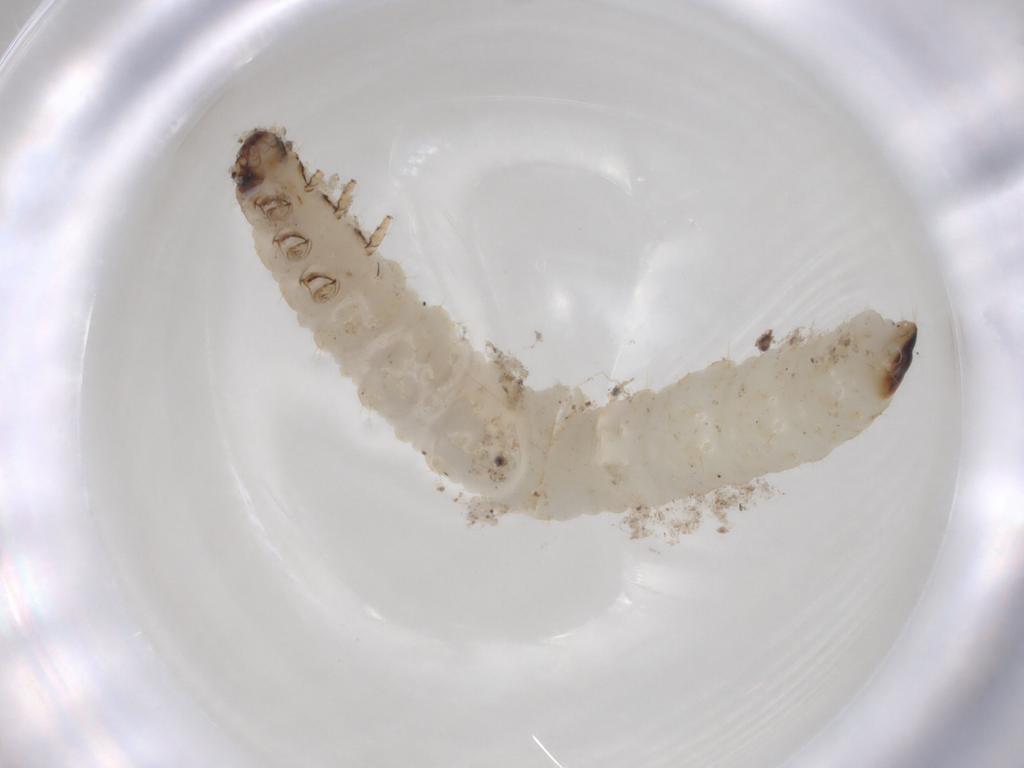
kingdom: Animalia
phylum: Arthropoda
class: Insecta
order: Coleoptera
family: Chrysomelidae
